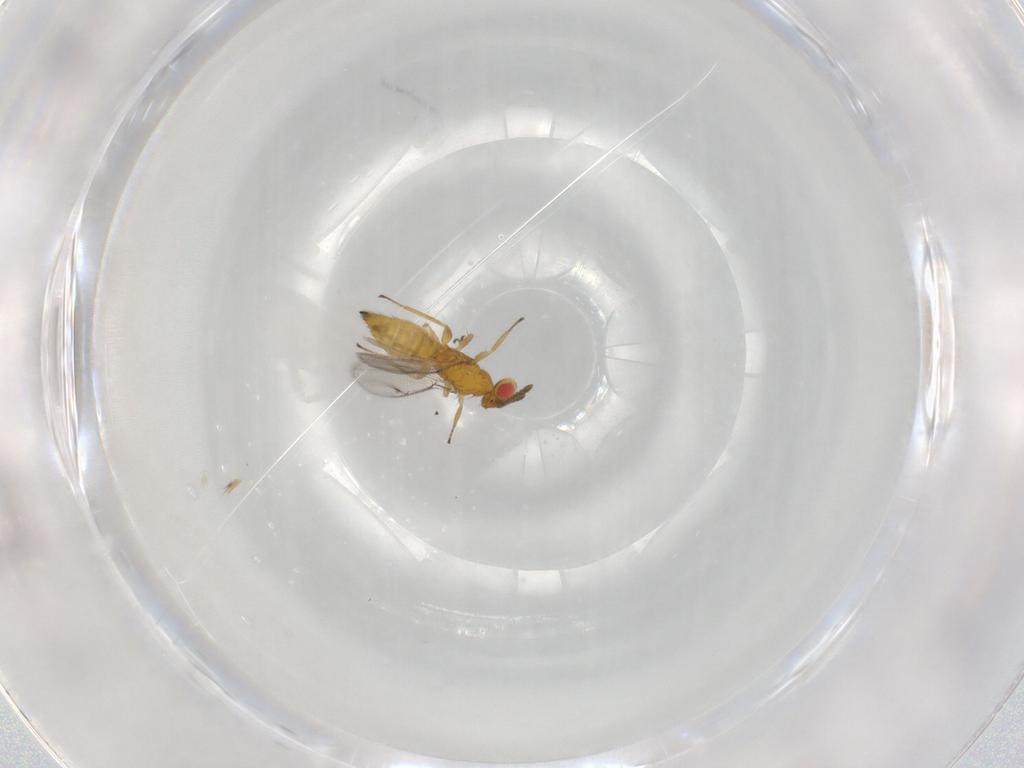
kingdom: Animalia
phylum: Arthropoda
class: Insecta
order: Hymenoptera
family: Eulophidae
